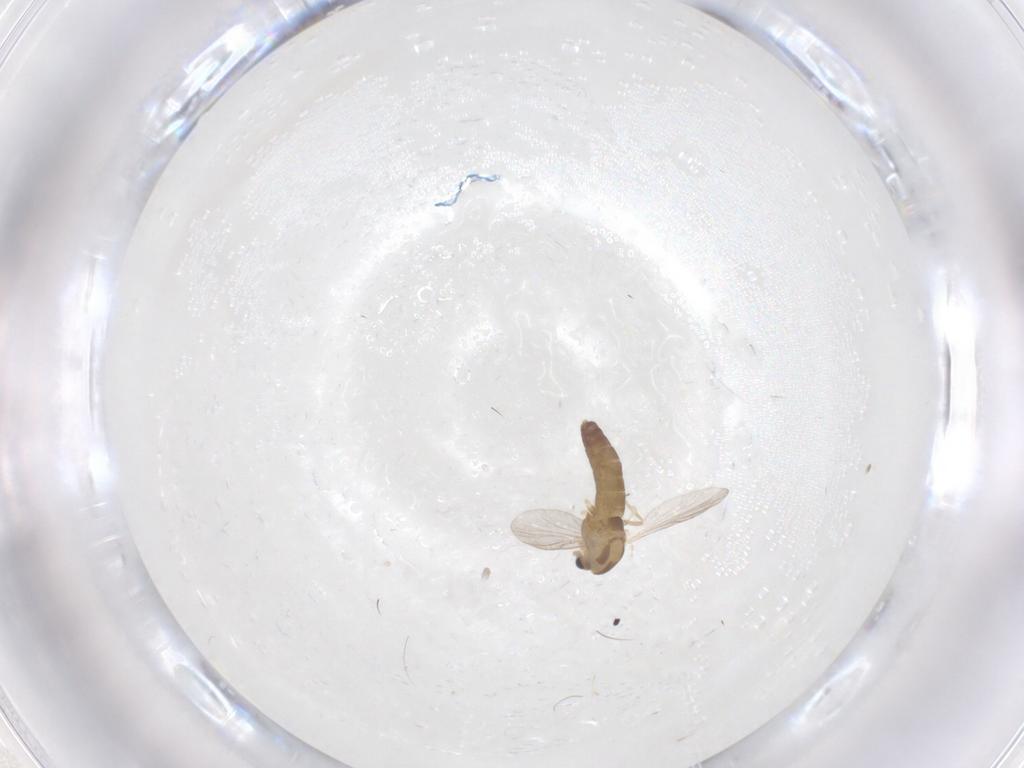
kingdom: Animalia
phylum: Arthropoda
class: Insecta
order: Diptera
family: Chironomidae
